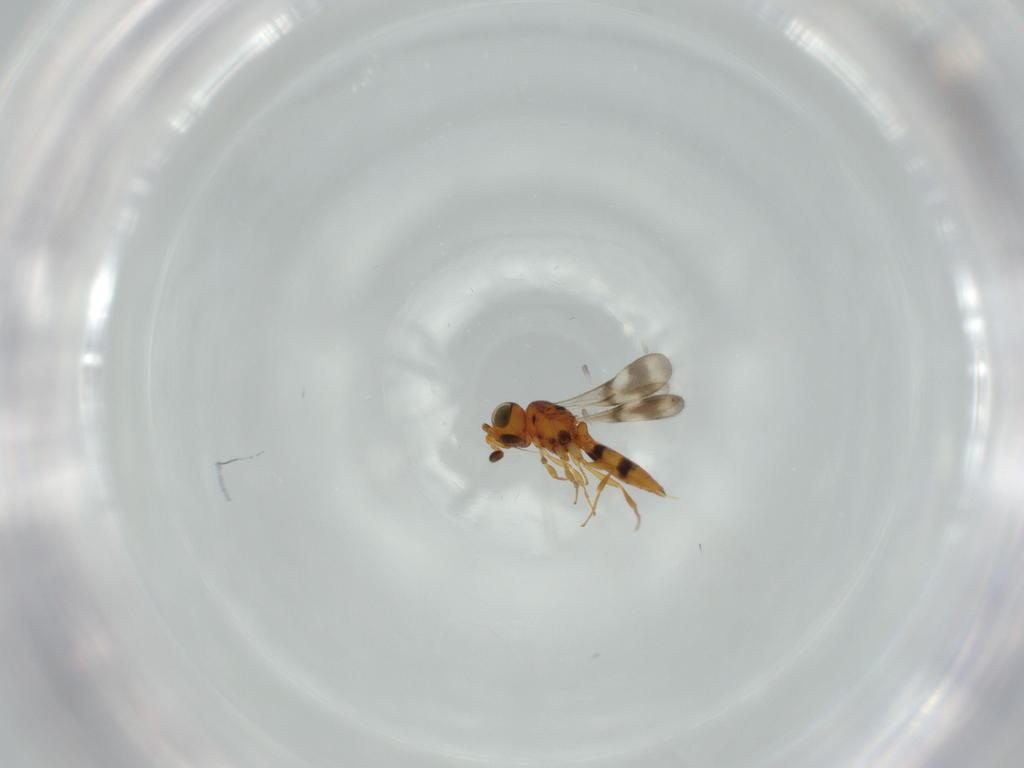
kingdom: Animalia
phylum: Arthropoda
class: Insecta
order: Hymenoptera
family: Scelionidae
